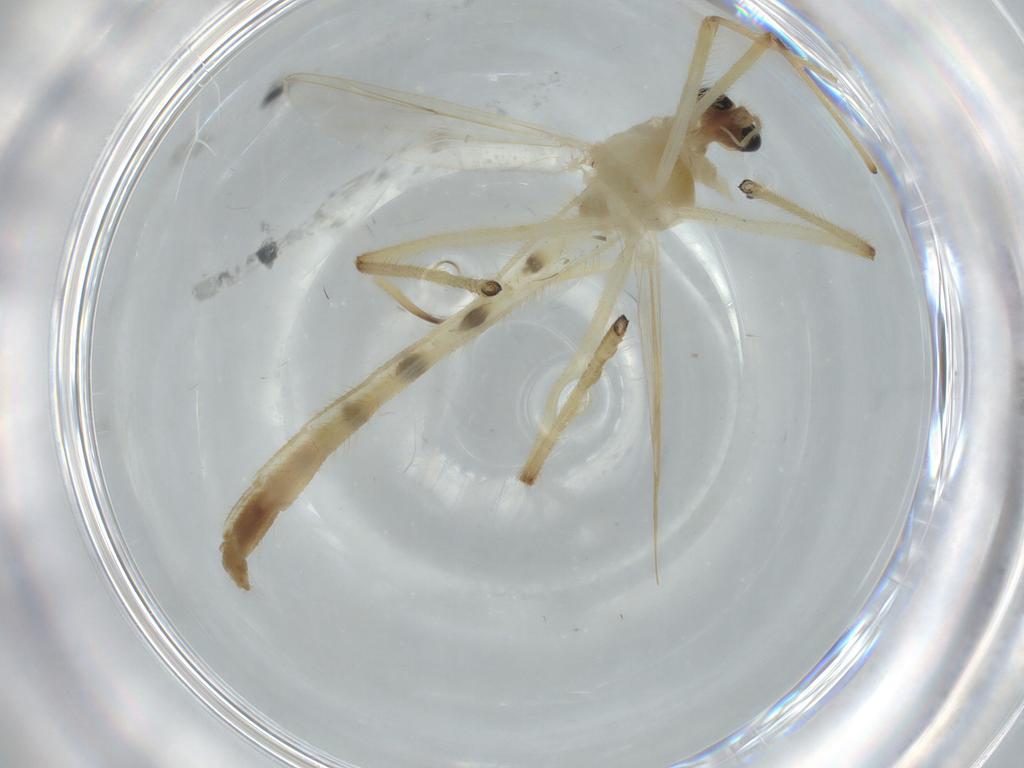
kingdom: Animalia
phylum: Arthropoda
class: Insecta
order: Diptera
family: Chironomidae
